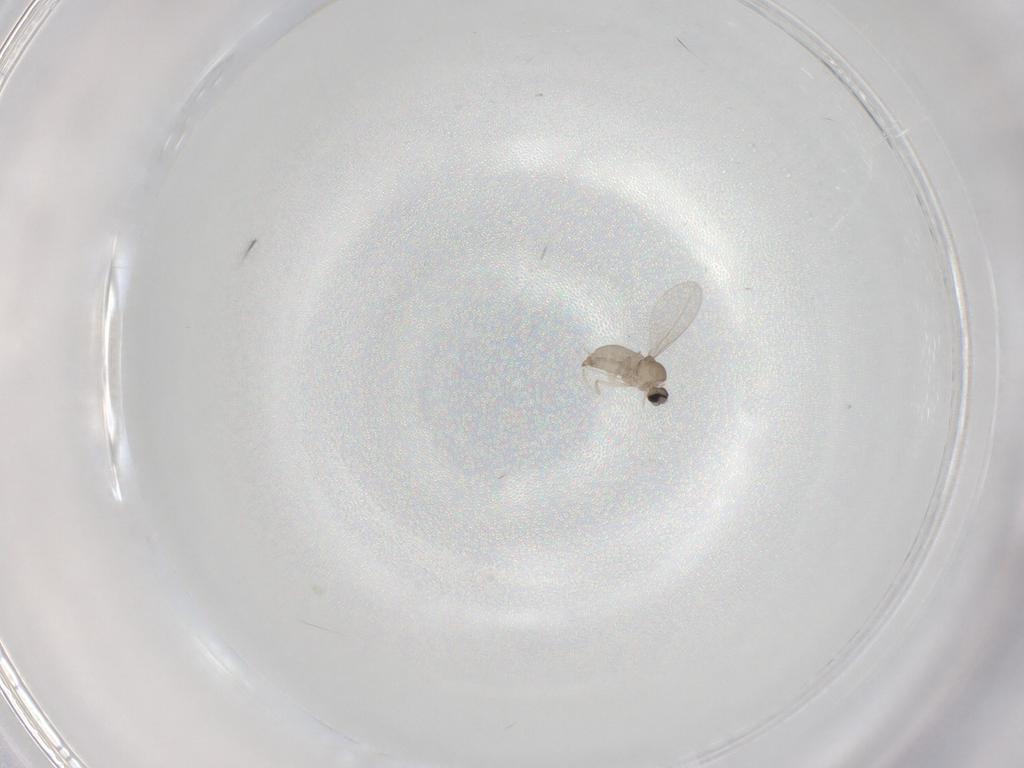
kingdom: Animalia
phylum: Arthropoda
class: Insecta
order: Diptera
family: Cecidomyiidae
